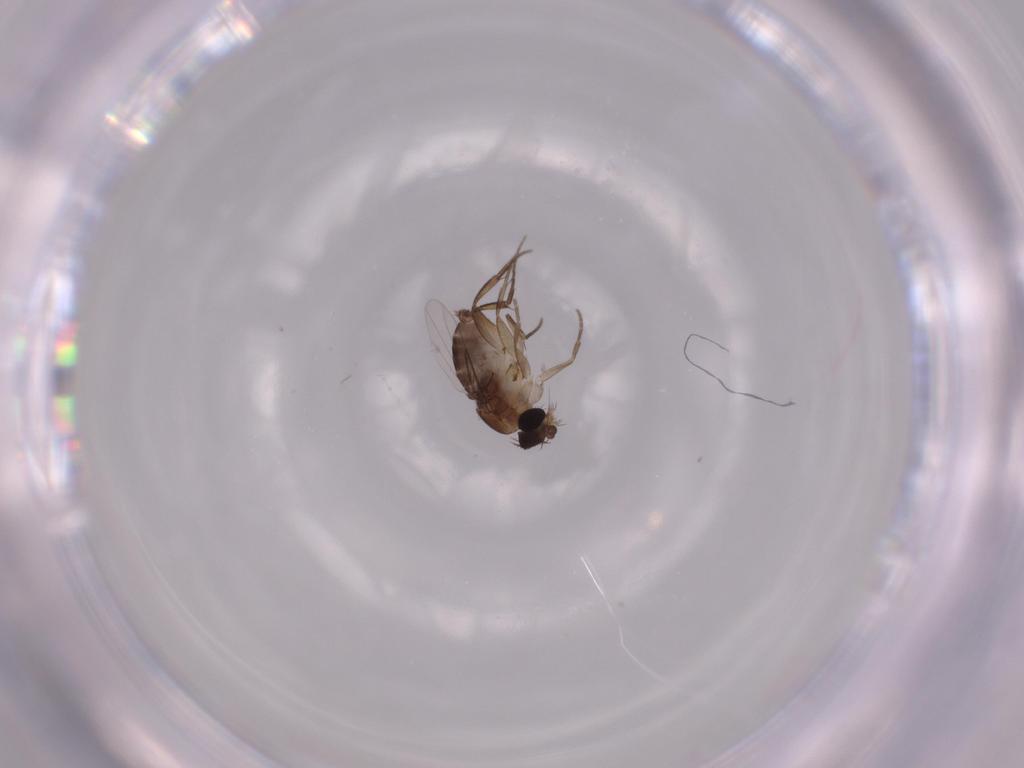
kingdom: Animalia
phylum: Arthropoda
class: Insecta
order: Diptera
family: Phoridae
